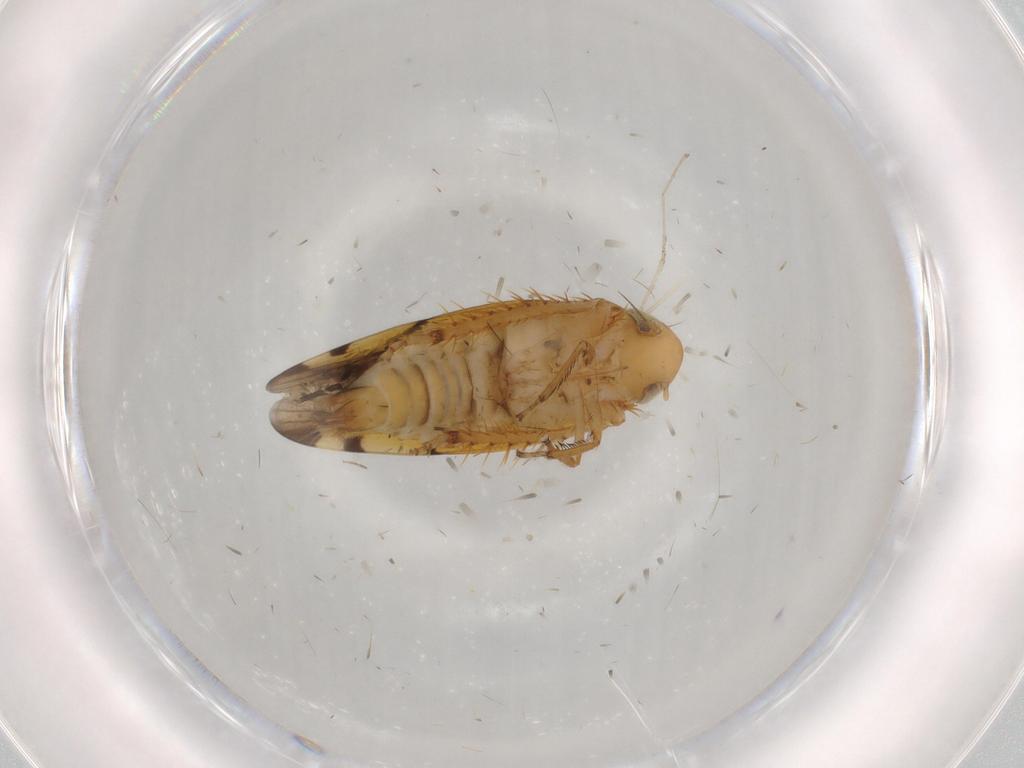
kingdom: Animalia
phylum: Arthropoda
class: Insecta
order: Hemiptera
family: Cicadellidae
